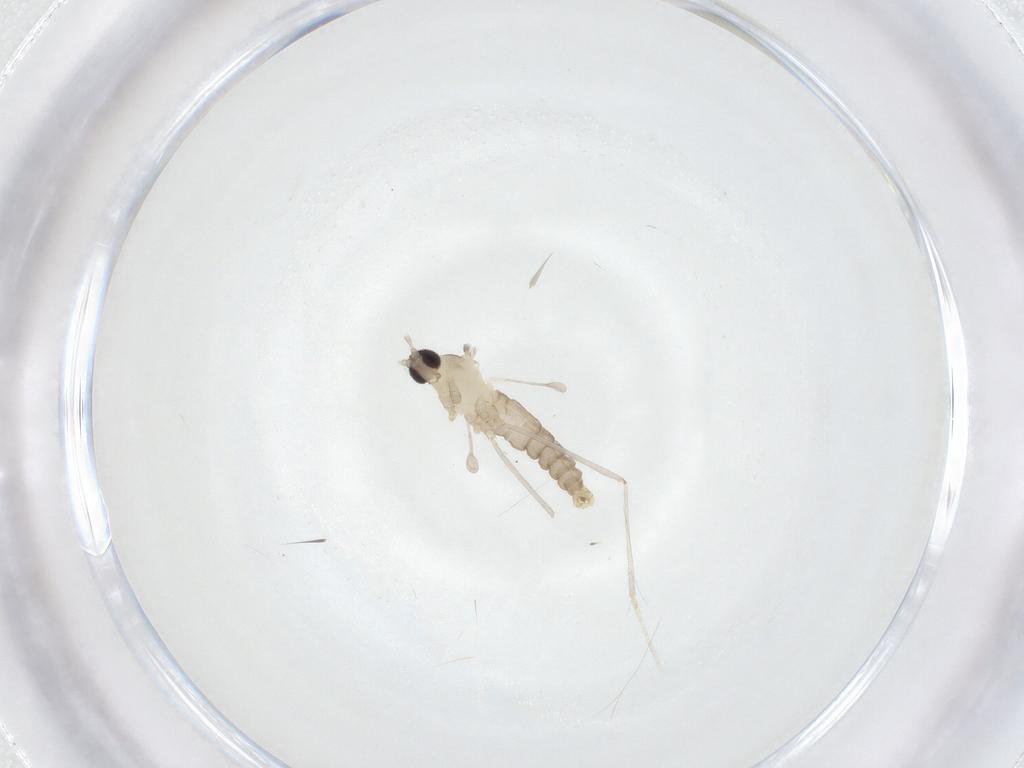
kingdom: Animalia
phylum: Arthropoda
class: Insecta
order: Diptera
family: Cecidomyiidae
